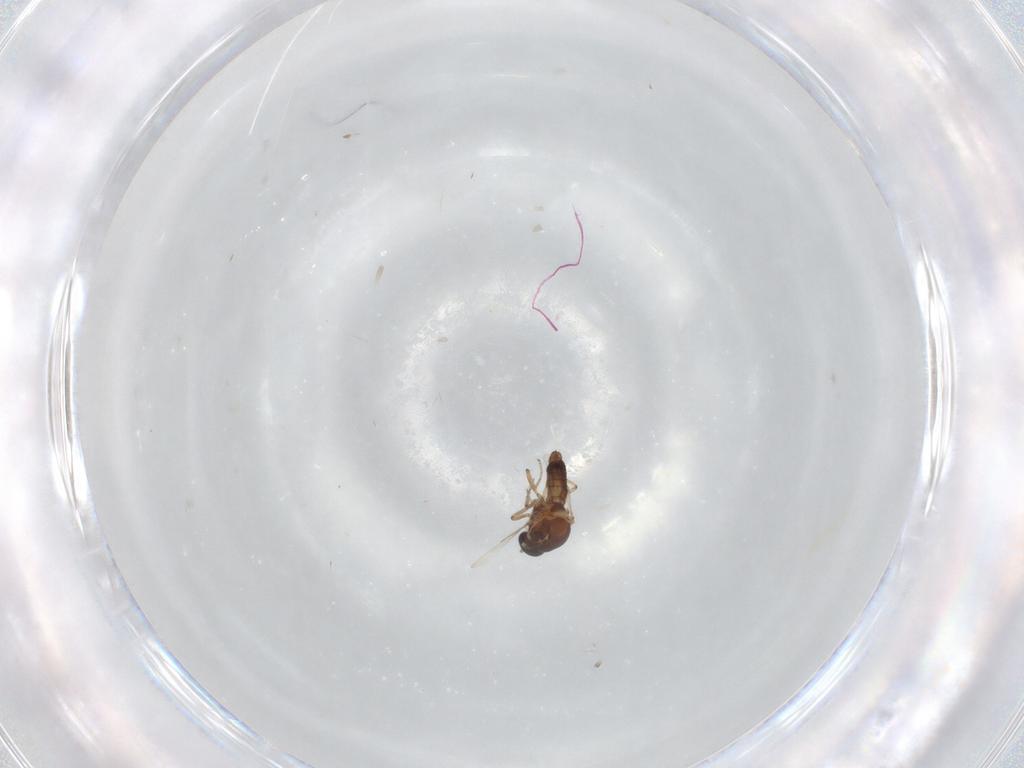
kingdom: Animalia
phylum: Arthropoda
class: Insecta
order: Diptera
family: Ceratopogonidae
